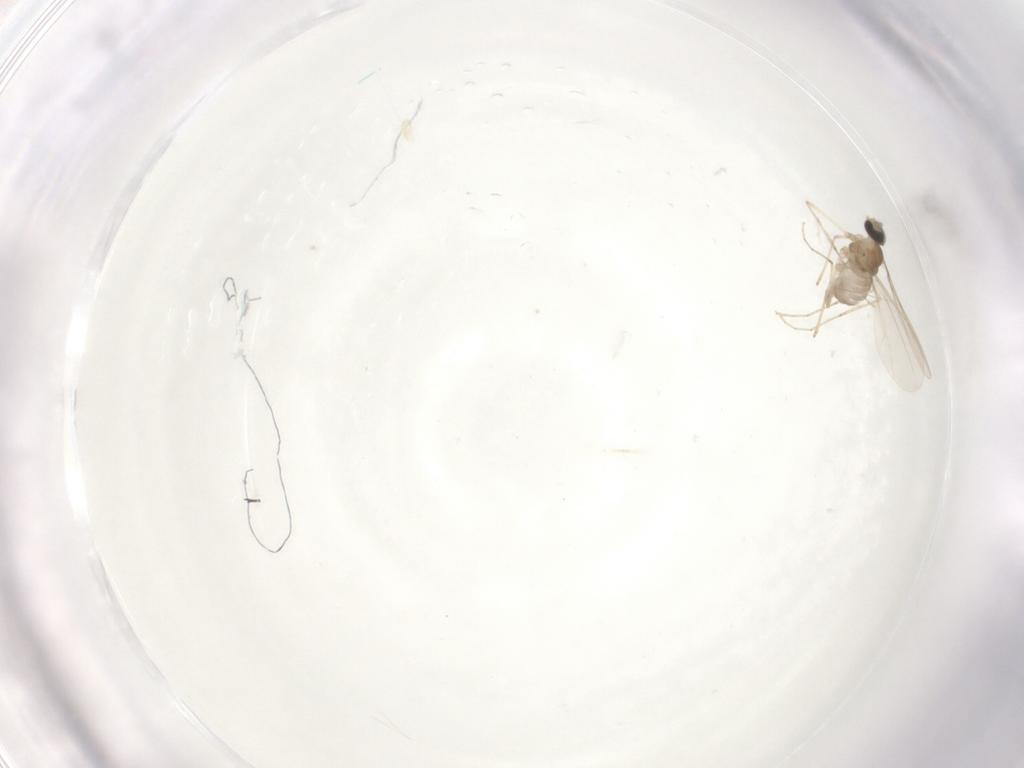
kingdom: Animalia
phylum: Arthropoda
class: Insecta
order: Diptera
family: Cecidomyiidae
